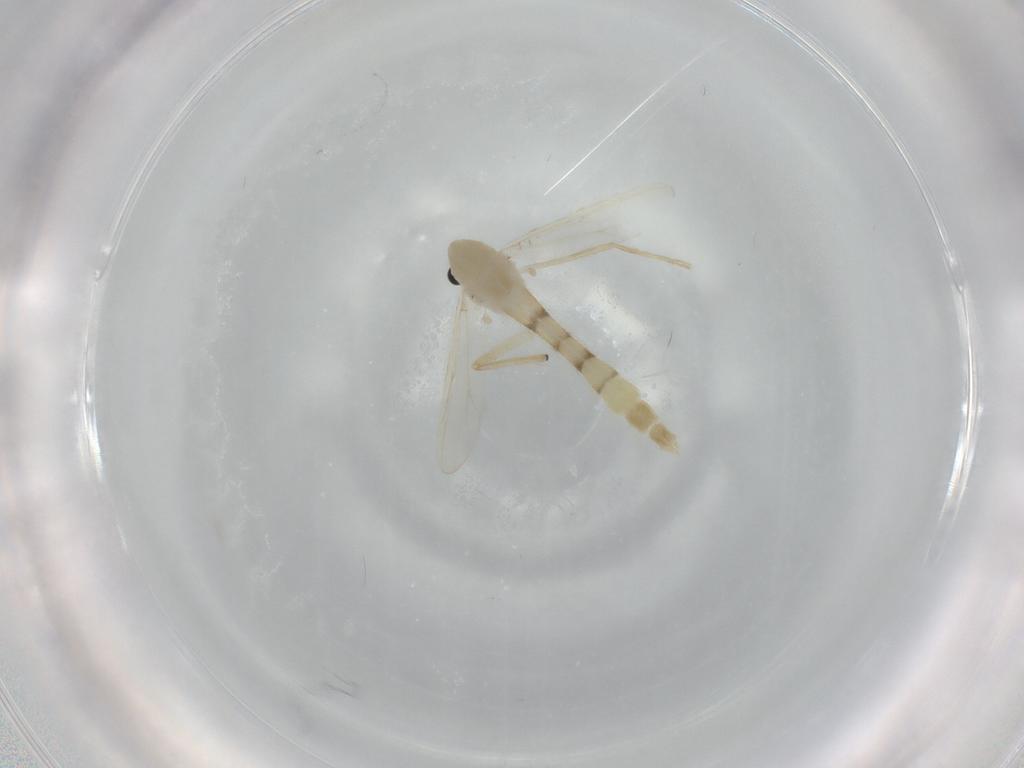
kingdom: Animalia
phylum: Arthropoda
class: Insecta
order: Diptera
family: Chironomidae
